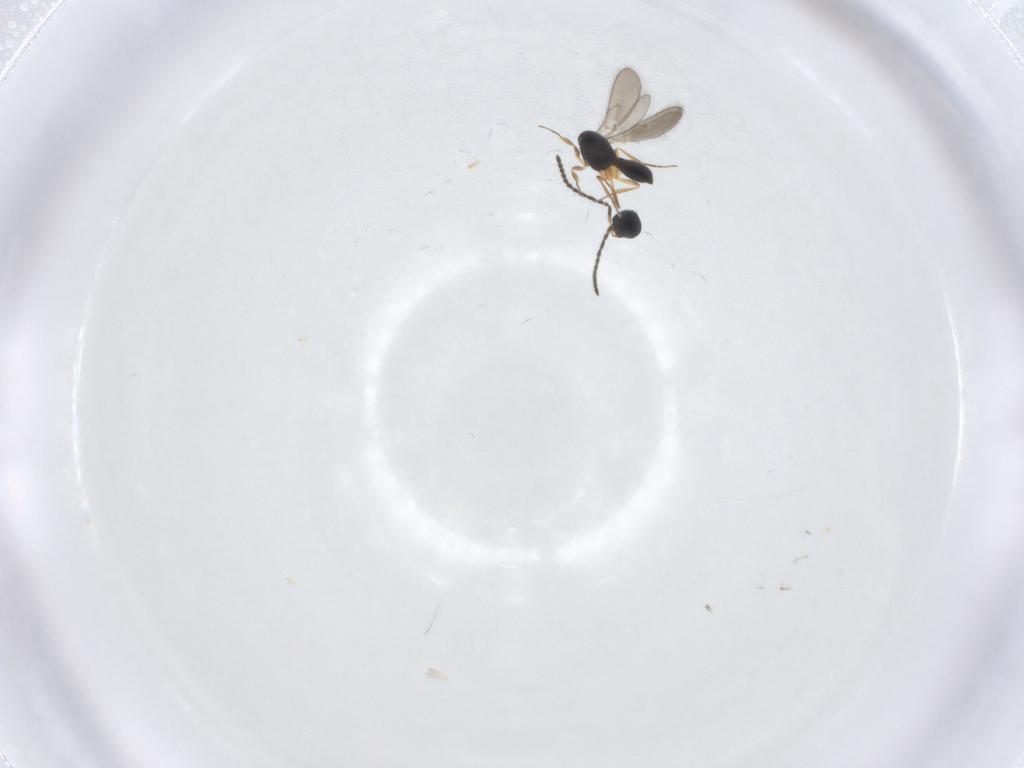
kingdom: Animalia
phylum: Arthropoda
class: Insecta
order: Hymenoptera
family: Scelionidae
